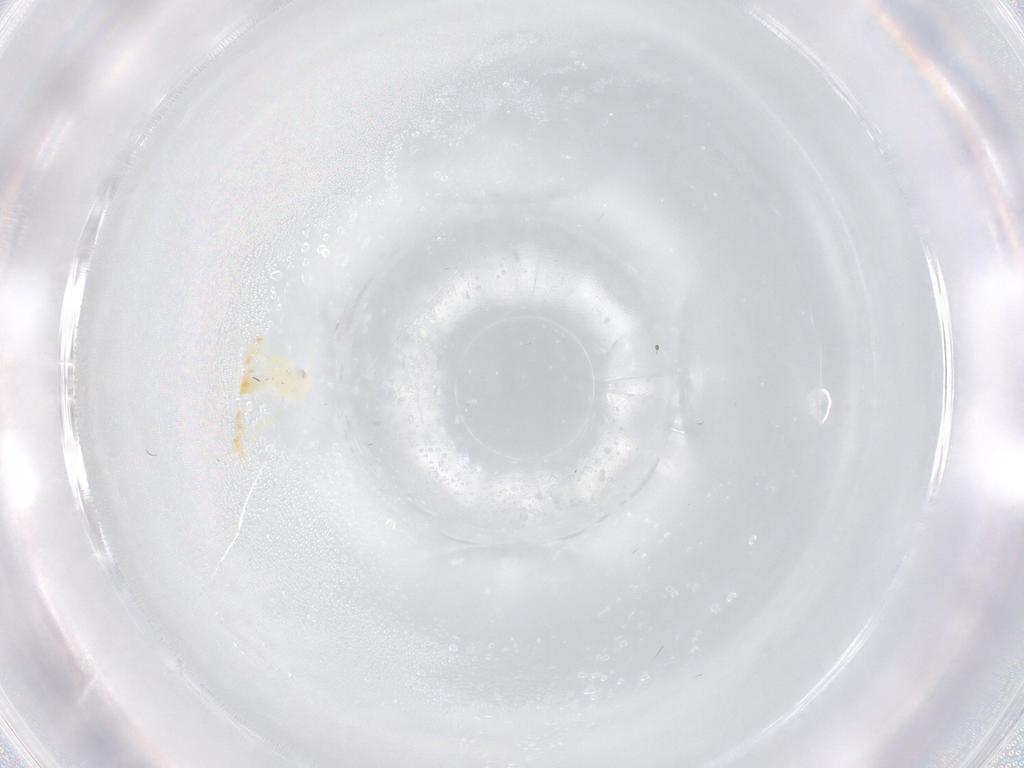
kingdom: Animalia
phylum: Arthropoda
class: Insecta
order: Hemiptera
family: Aleyrodidae
